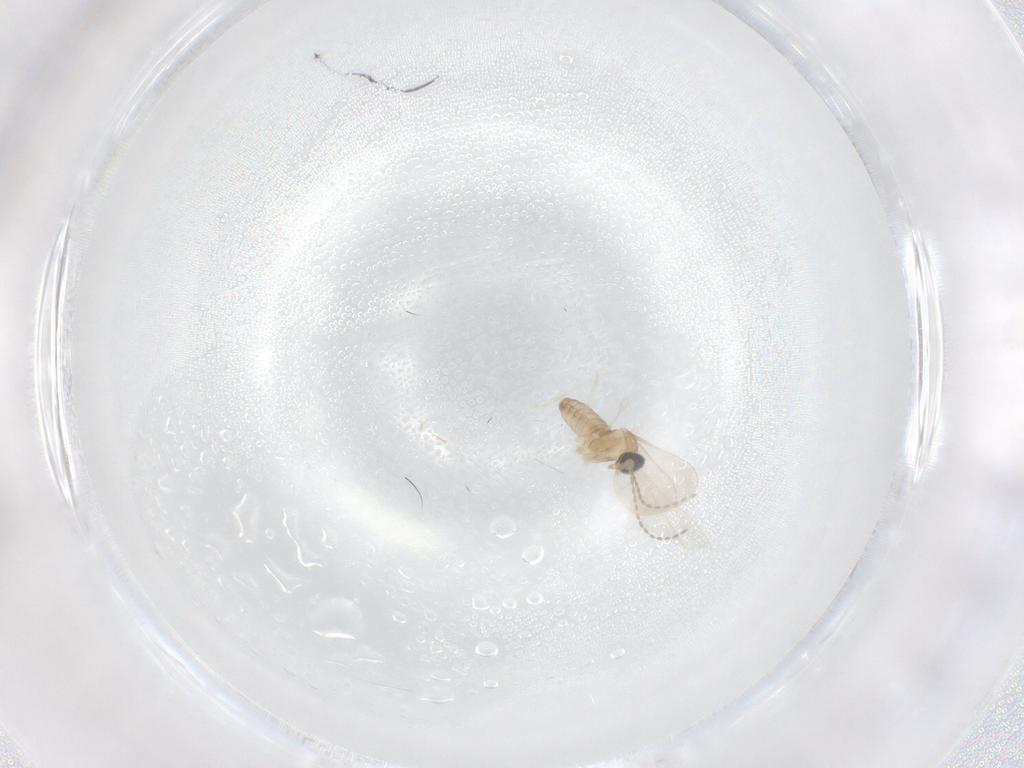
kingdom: Animalia
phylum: Arthropoda
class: Insecta
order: Diptera
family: Cecidomyiidae
